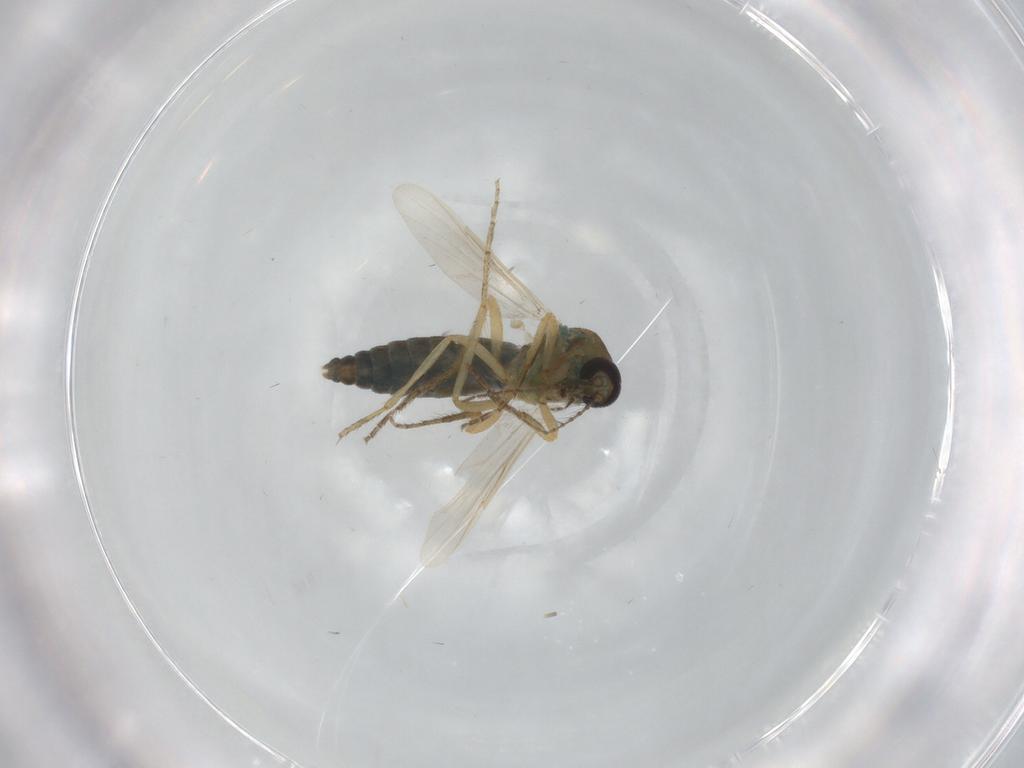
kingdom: Animalia
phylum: Arthropoda
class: Insecta
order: Diptera
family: Ceratopogonidae
